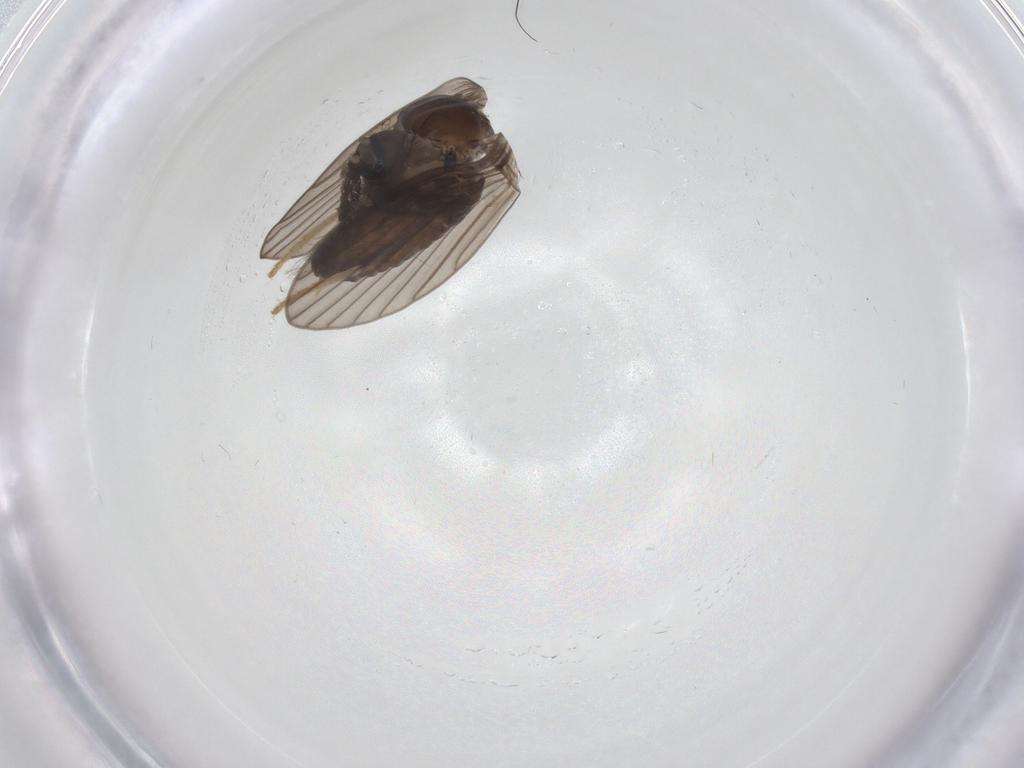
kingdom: Animalia
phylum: Arthropoda
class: Insecta
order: Diptera
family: Psychodidae
